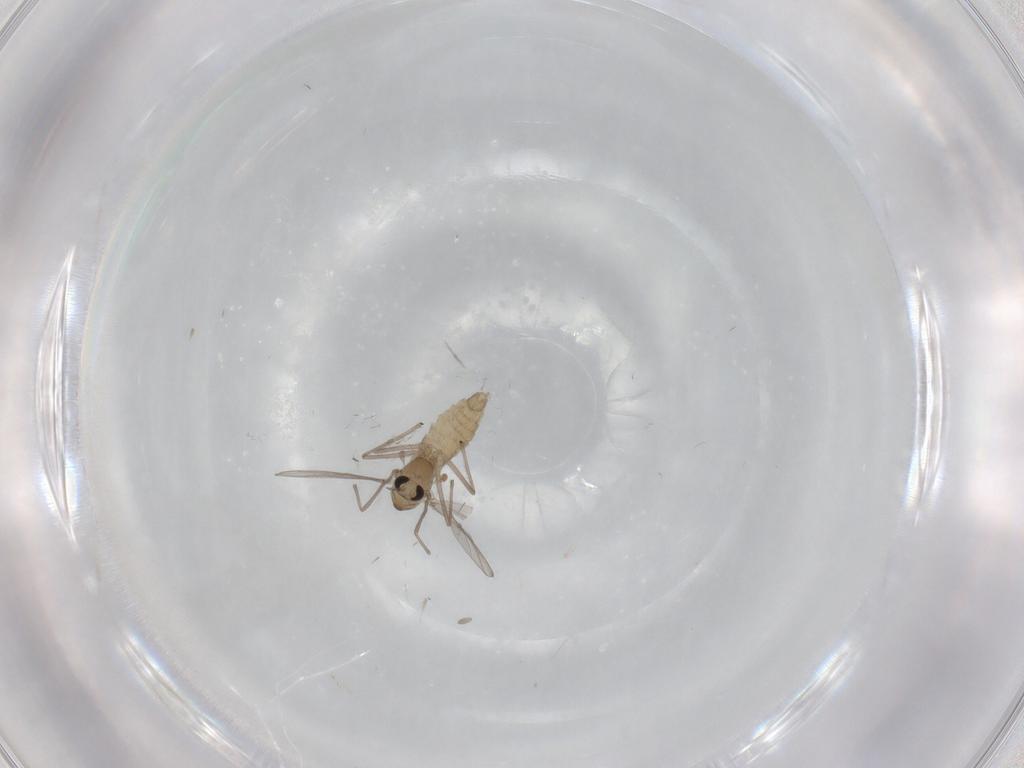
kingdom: Animalia
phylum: Arthropoda
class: Insecta
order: Diptera
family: Chironomidae
